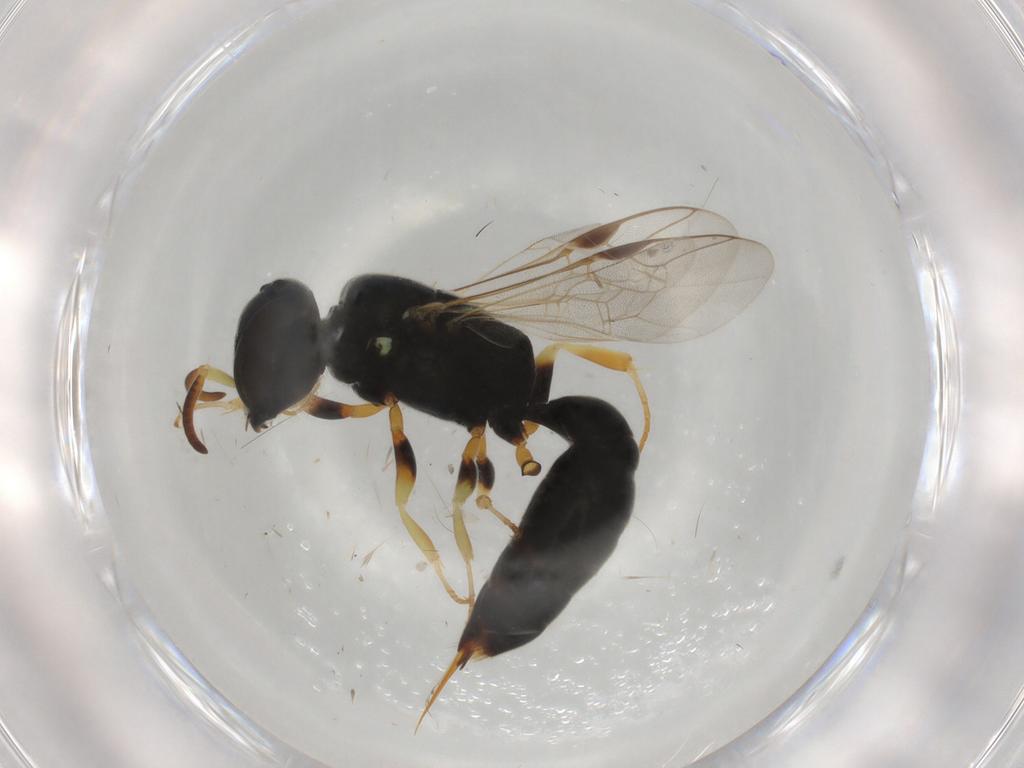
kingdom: Animalia
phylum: Arthropoda
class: Insecta
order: Hymenoptera
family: Pemphredonidae
